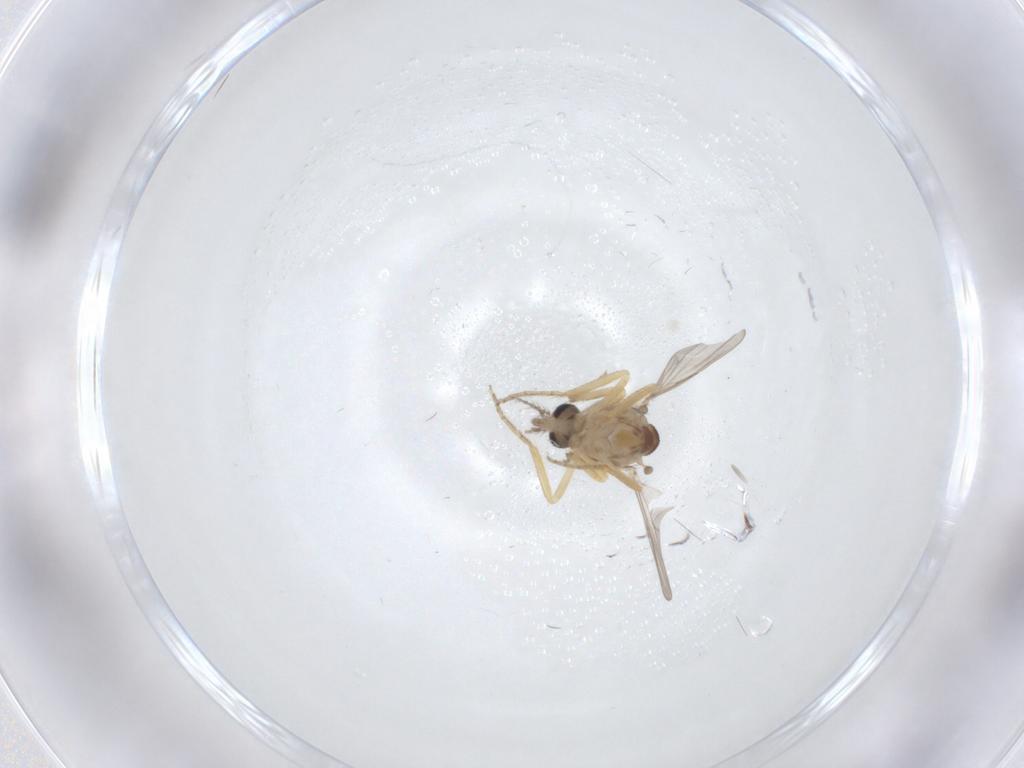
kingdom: Animalia
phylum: Arthropoda
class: Insecta
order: Diptera
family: Ceratopogonidae
